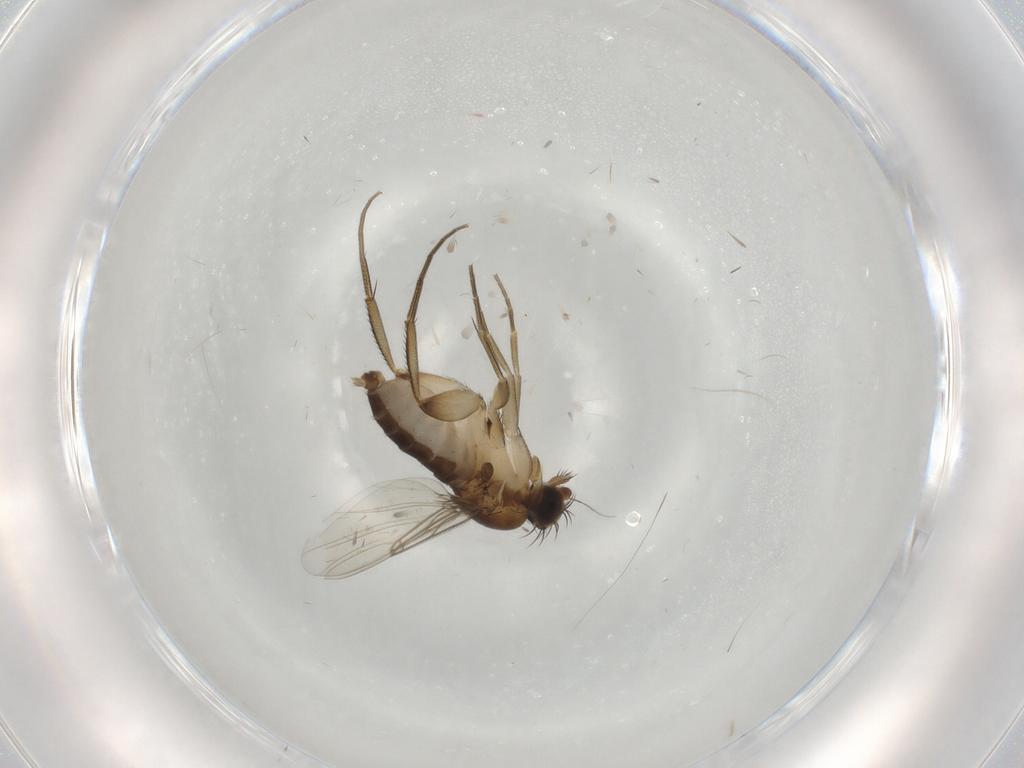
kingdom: Animalia
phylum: Arthropoda
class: Insecta
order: Diptera
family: Phoridae
